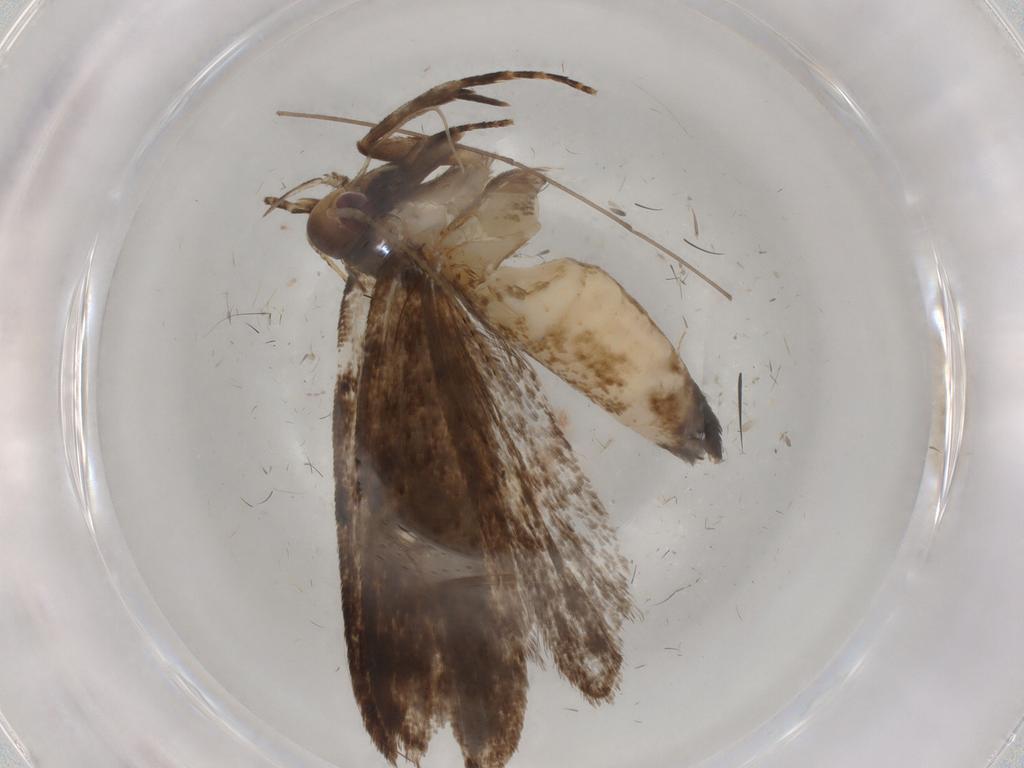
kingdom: Animalia
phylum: Arthropoda
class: Insecta
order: Lepidoptera
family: Gelechiidae
